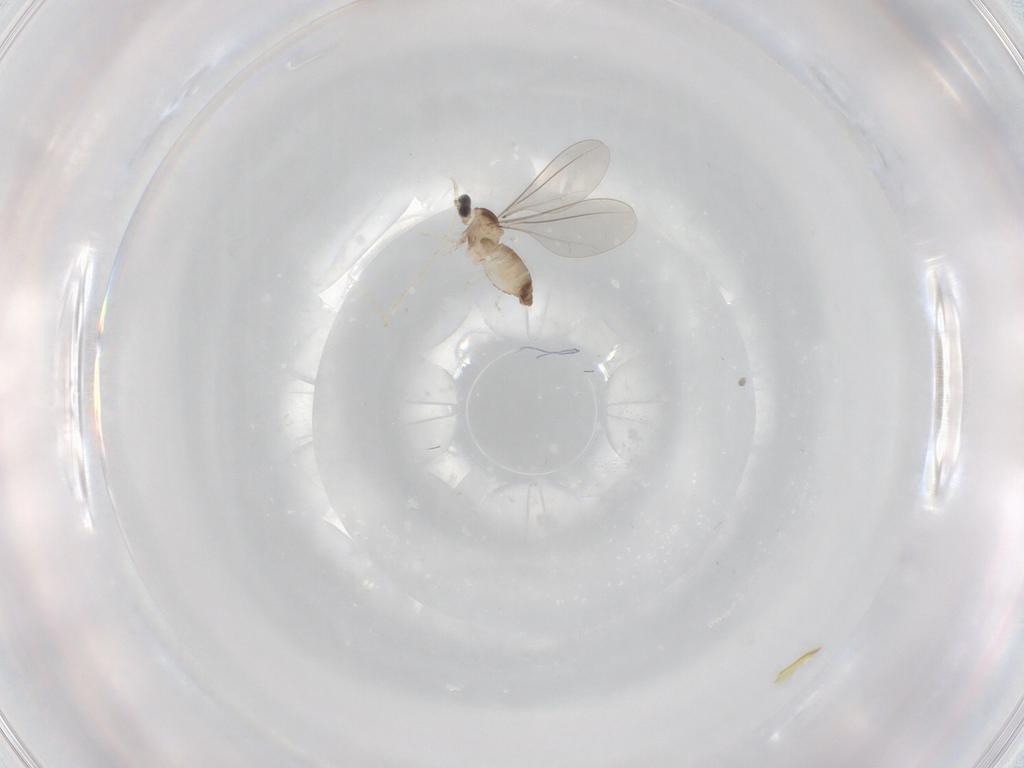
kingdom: Animalia
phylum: Arthropoda
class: Insecta
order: Diptera
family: Cecidomyiidae
